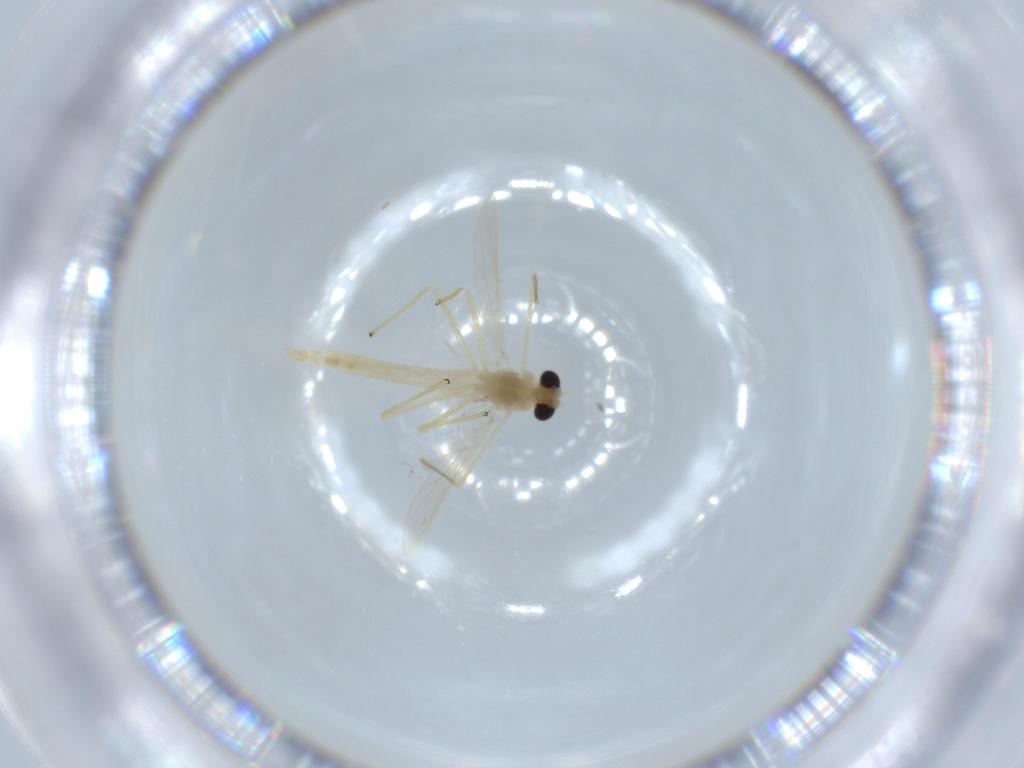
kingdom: Animalia
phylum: Arthropoda
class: Insecta
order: Diptera
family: Chironomidae
